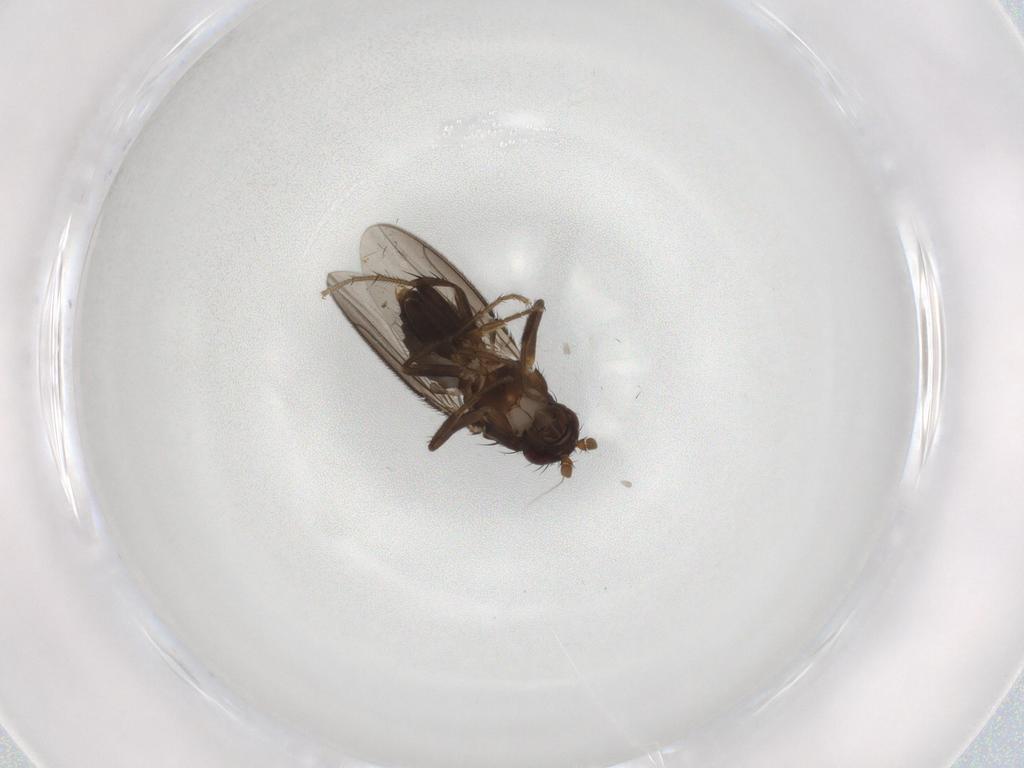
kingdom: Animalia
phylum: Arthropoda
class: Insecta
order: Diptera
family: Sphaeroceridae
